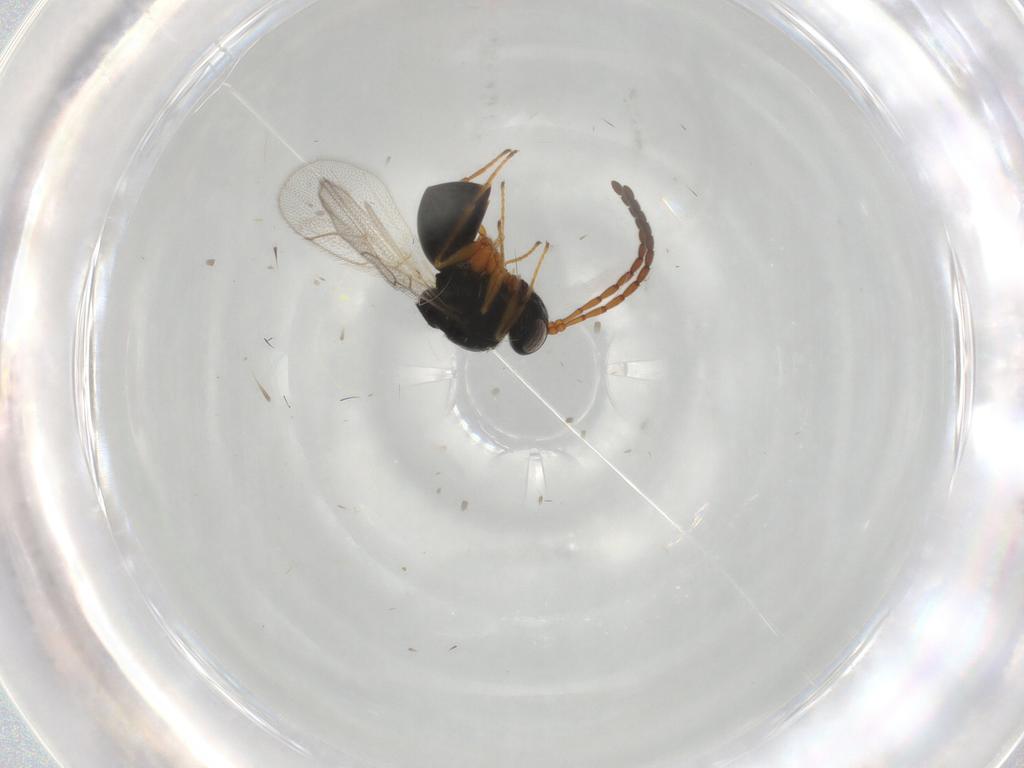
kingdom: Animalia
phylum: Arthropoda
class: Insecta
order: Hymenoptera
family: Figitidae
